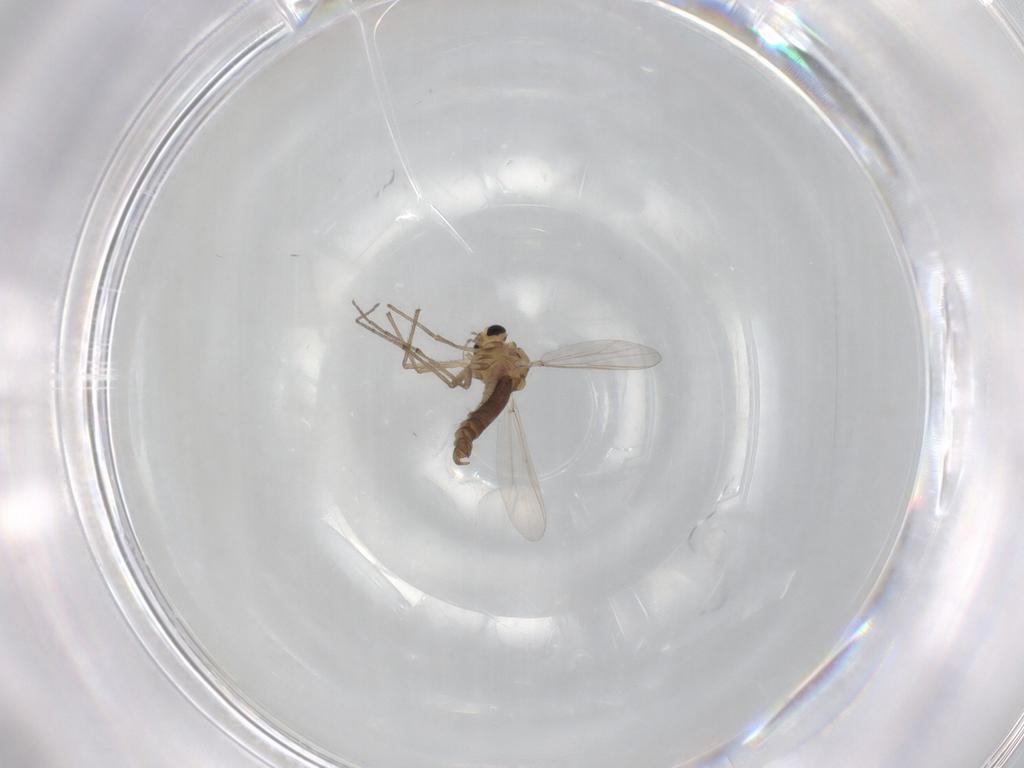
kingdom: Animalia
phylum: Arthropoda
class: Insecta
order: Diptera
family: Chironomidae
